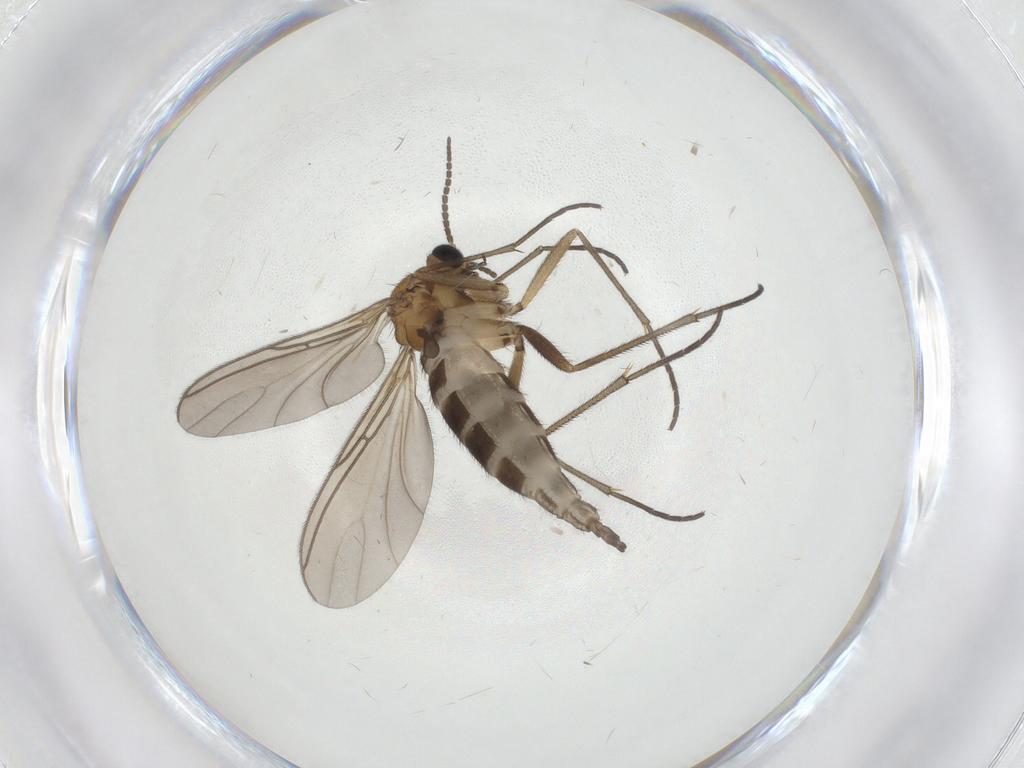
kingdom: Animalia
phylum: Arthropoda
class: Insecta
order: Diptera
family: Sciaridae
